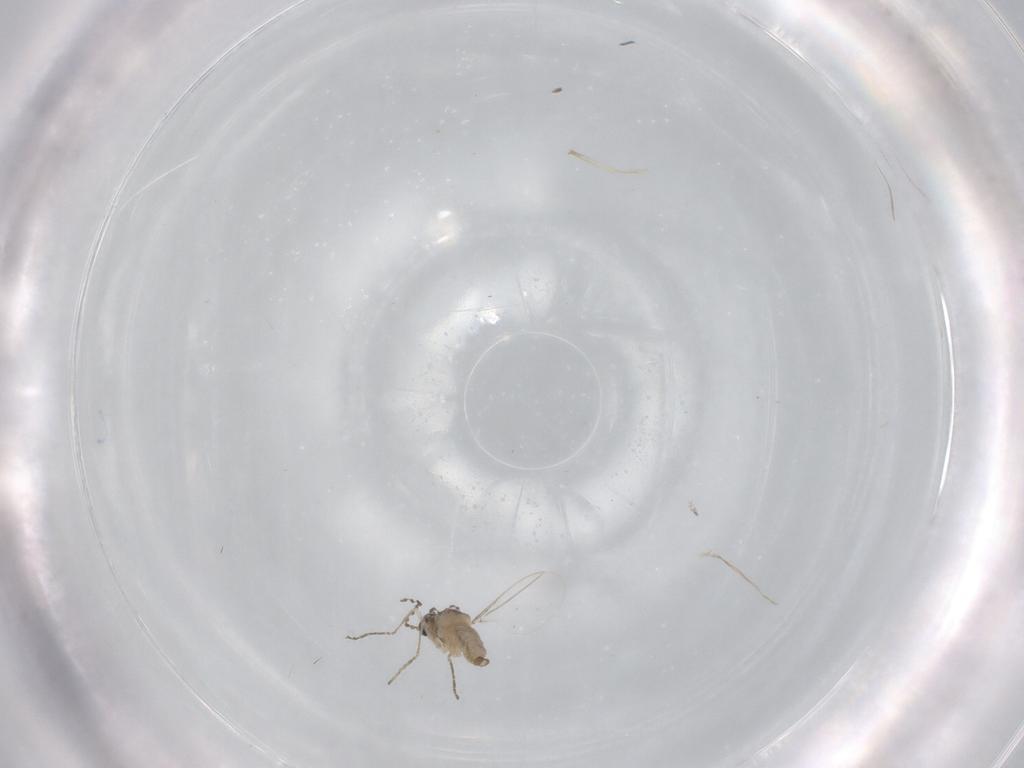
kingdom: Animalia
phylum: Arthropoda
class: Insecta
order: Diptera
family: Cecidomyiidae
